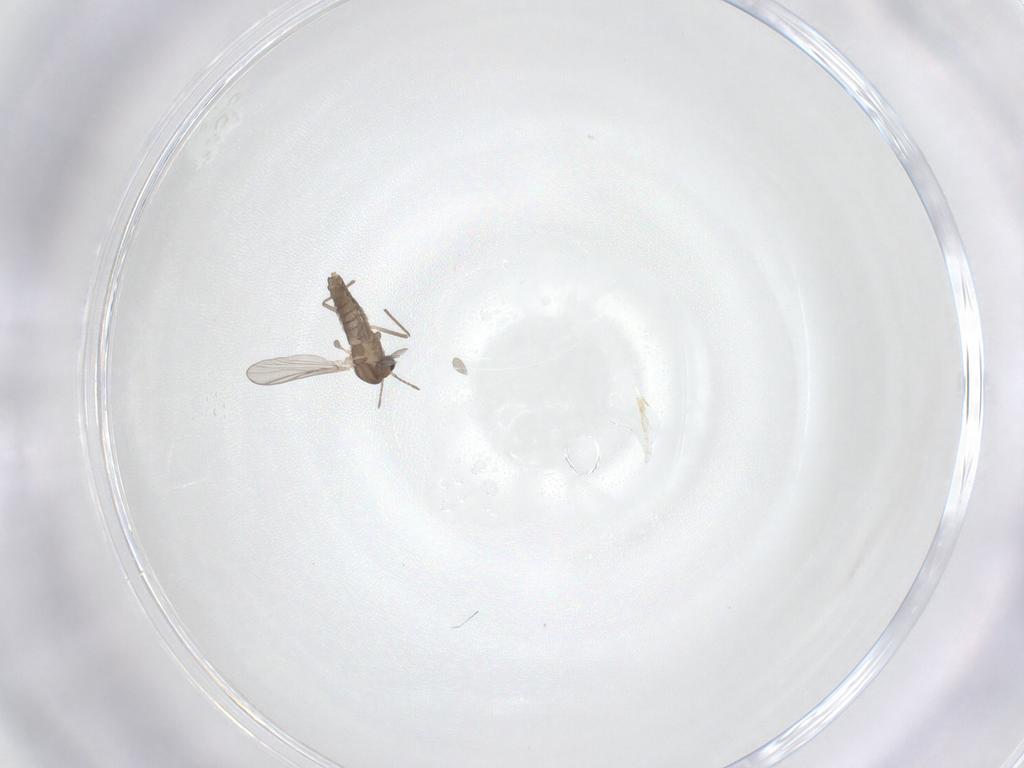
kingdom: Animalia
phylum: Arthropoda
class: Insecta
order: Diptera
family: Chironomidae
